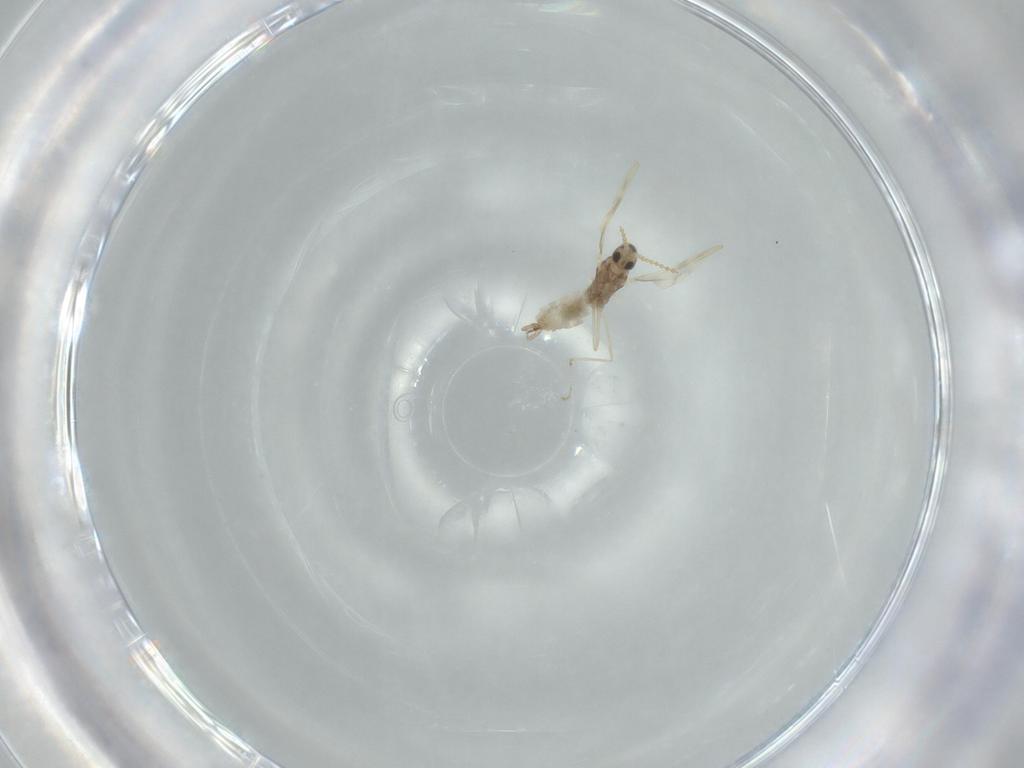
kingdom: Animalia
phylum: Arthropoda
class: Insecta
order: Diptera
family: Cecidomyiidae
